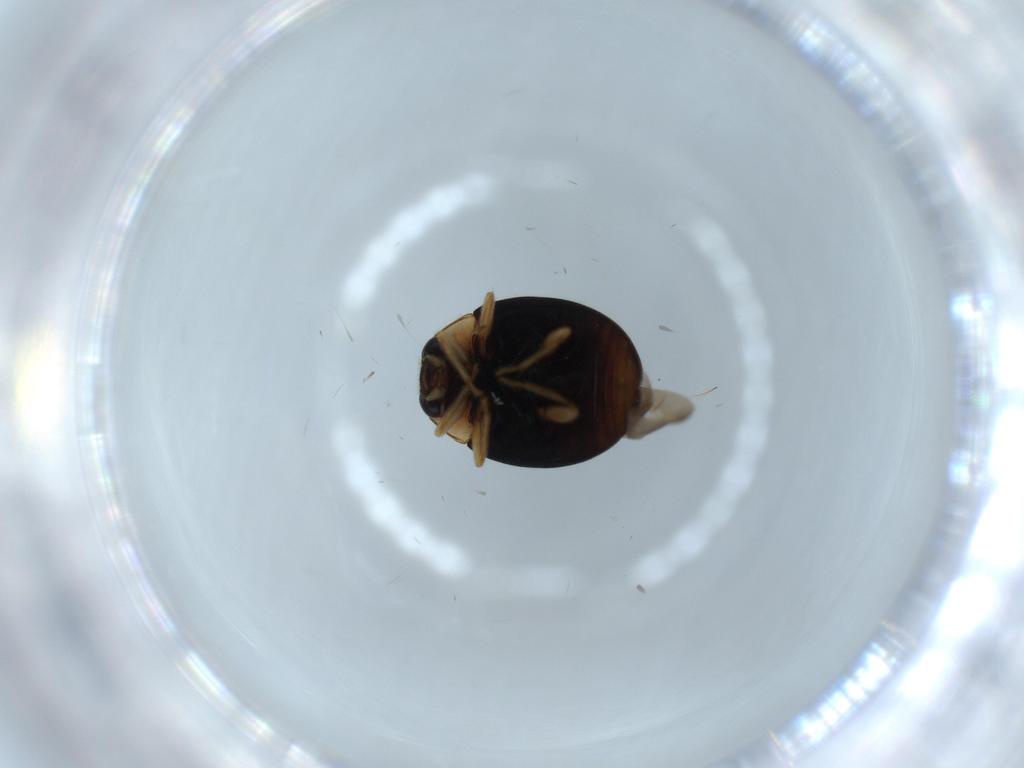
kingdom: Animalia
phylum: Arthropoda
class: Insecta
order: Coleoptera
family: Coccinellidae
